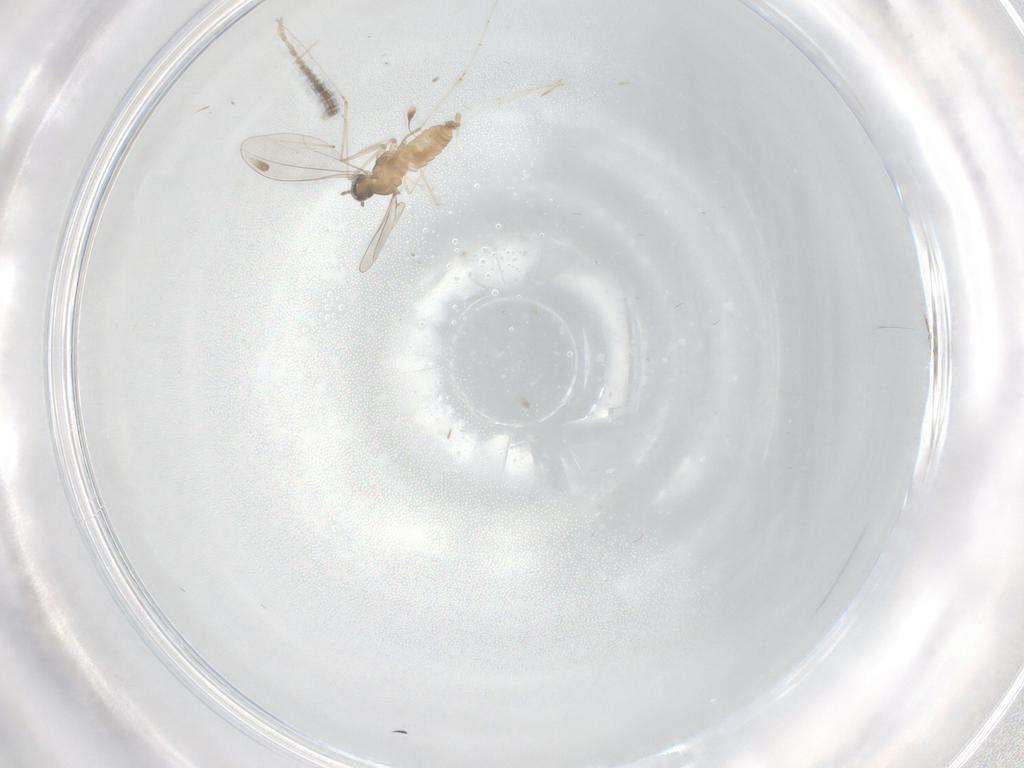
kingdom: Animalia
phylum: Arthropoda
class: Insecta
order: Diptera
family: Psychodidae
